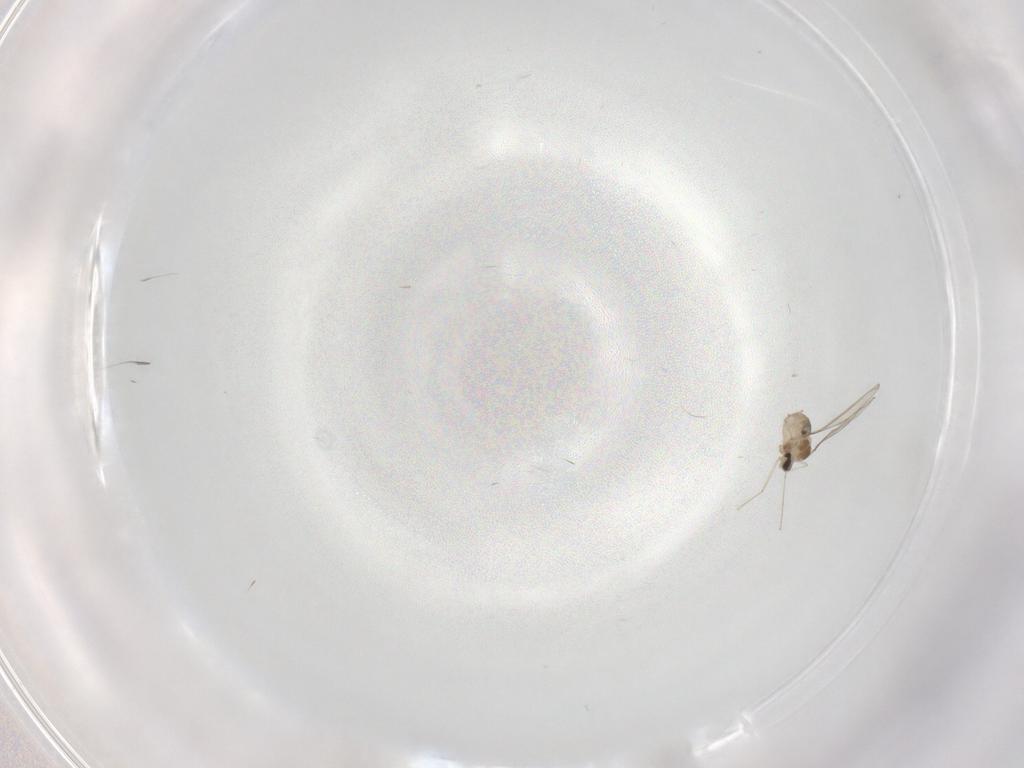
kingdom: Animalia
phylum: Arthropoda
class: Insecta
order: Diptera
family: Cecidomyiidae
